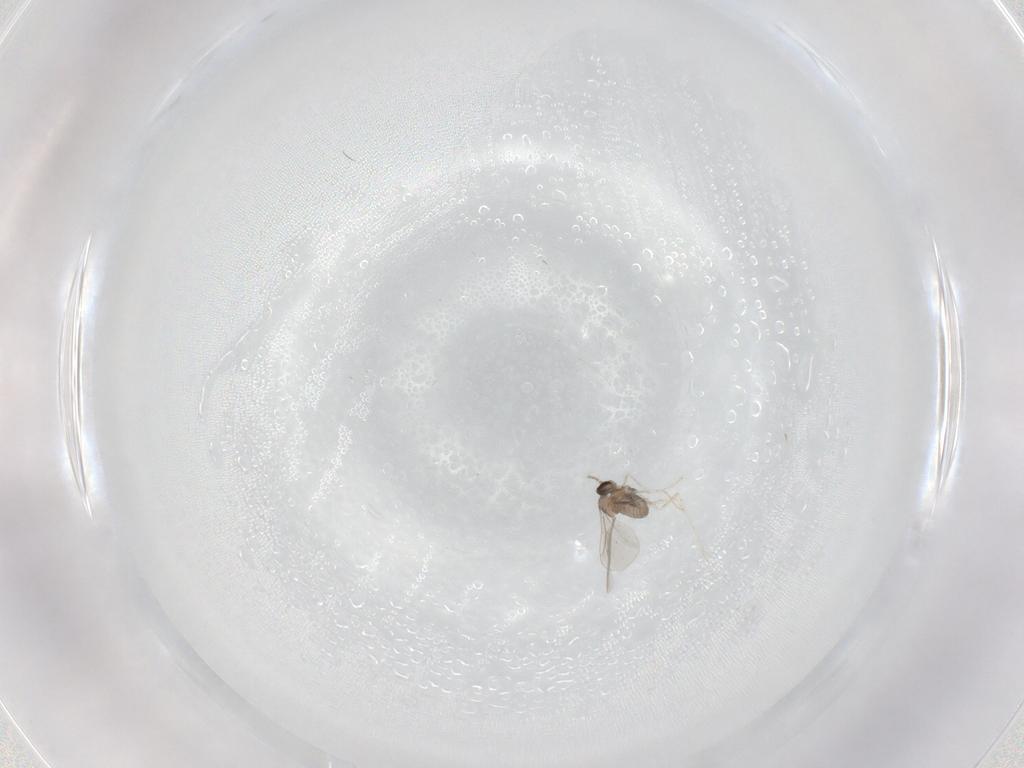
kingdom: Animalia
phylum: Arthropoda
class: Insecta
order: Diptera
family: Cecidomyiidae
